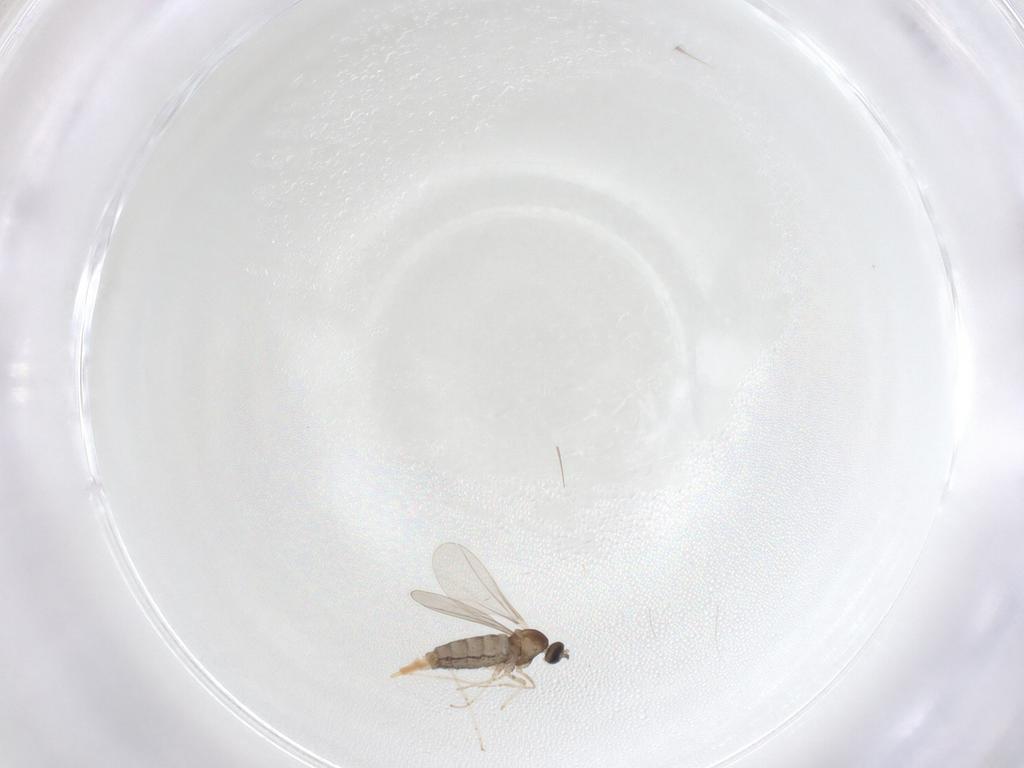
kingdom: Animalia
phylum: Arthropoda
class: Insecta
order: Diptera
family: Cecidomyiidae
